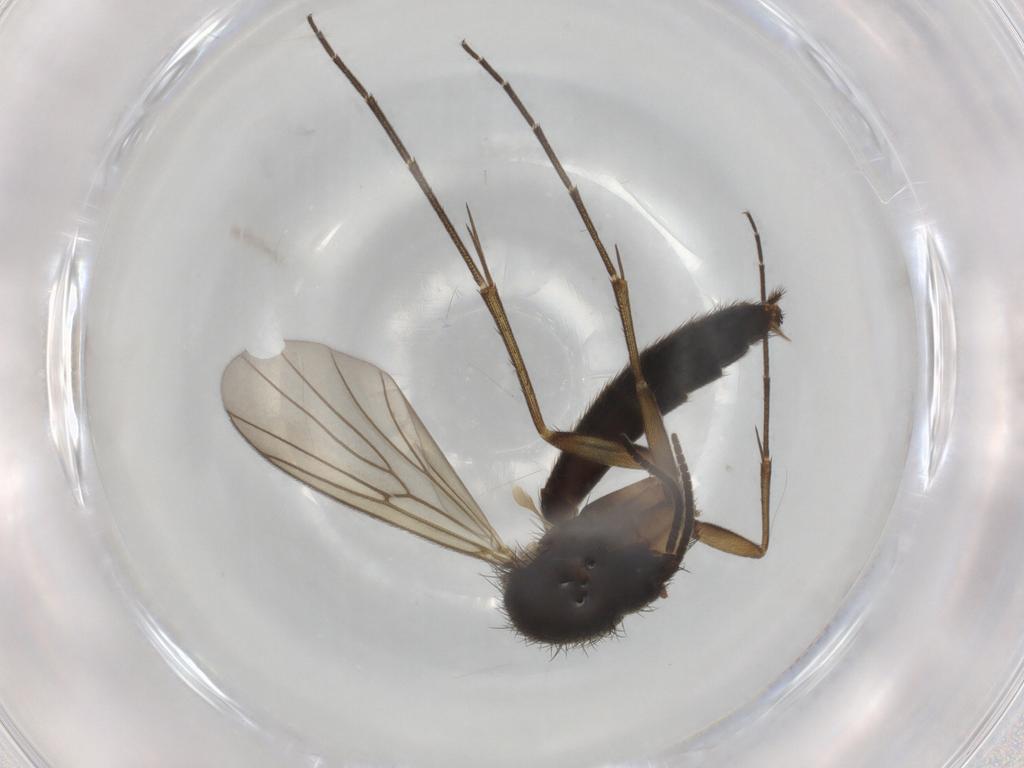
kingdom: Animalia
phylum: Arthropoda
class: Insecta
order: Diptera
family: Mycetophilidae
